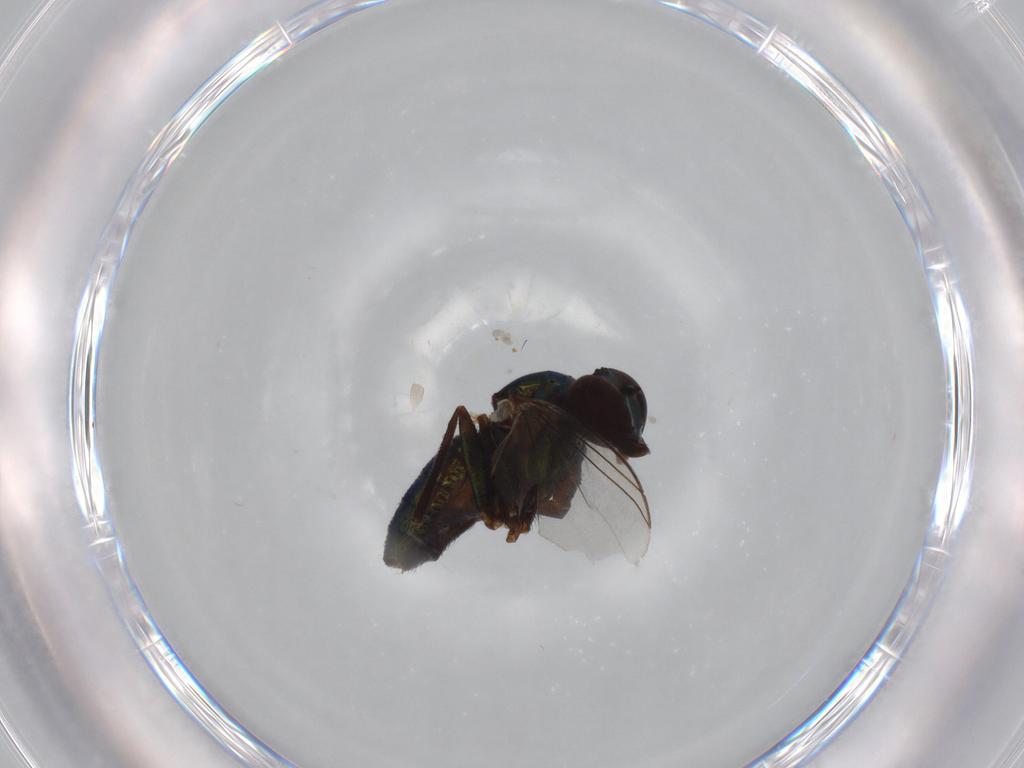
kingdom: Animalia
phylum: Arthropoda
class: Insecta
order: Diptera
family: Dolichopodidae
